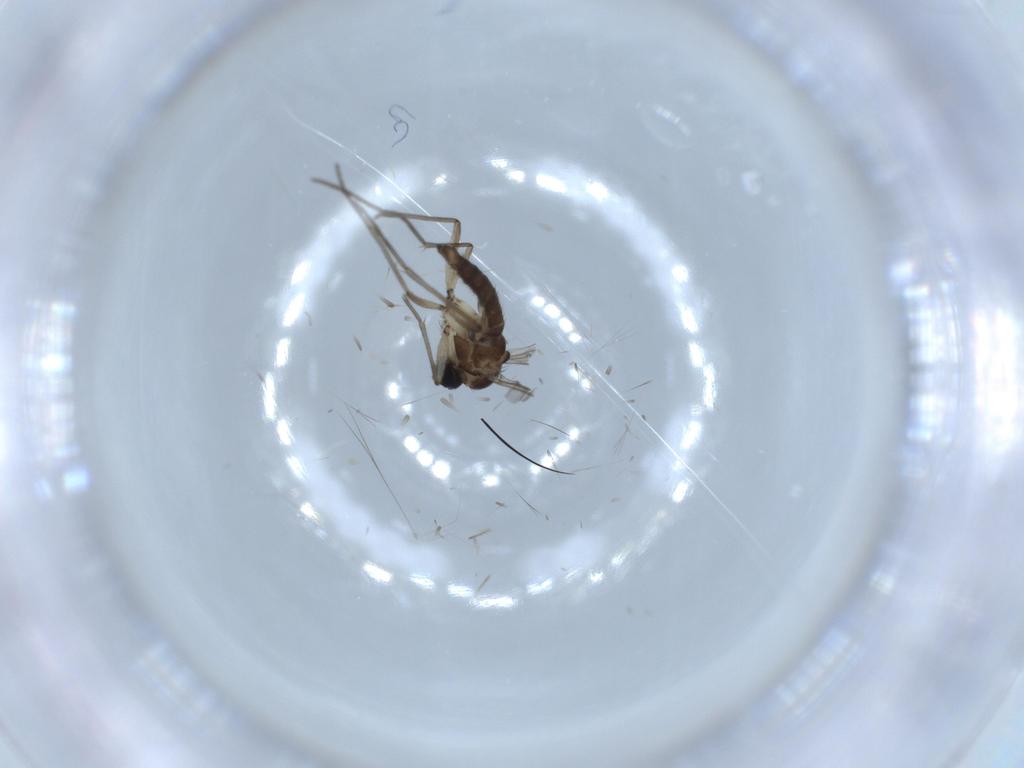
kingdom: Animalia
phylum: Arthropoda
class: Insecta
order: Diptera
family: Sciaridae
